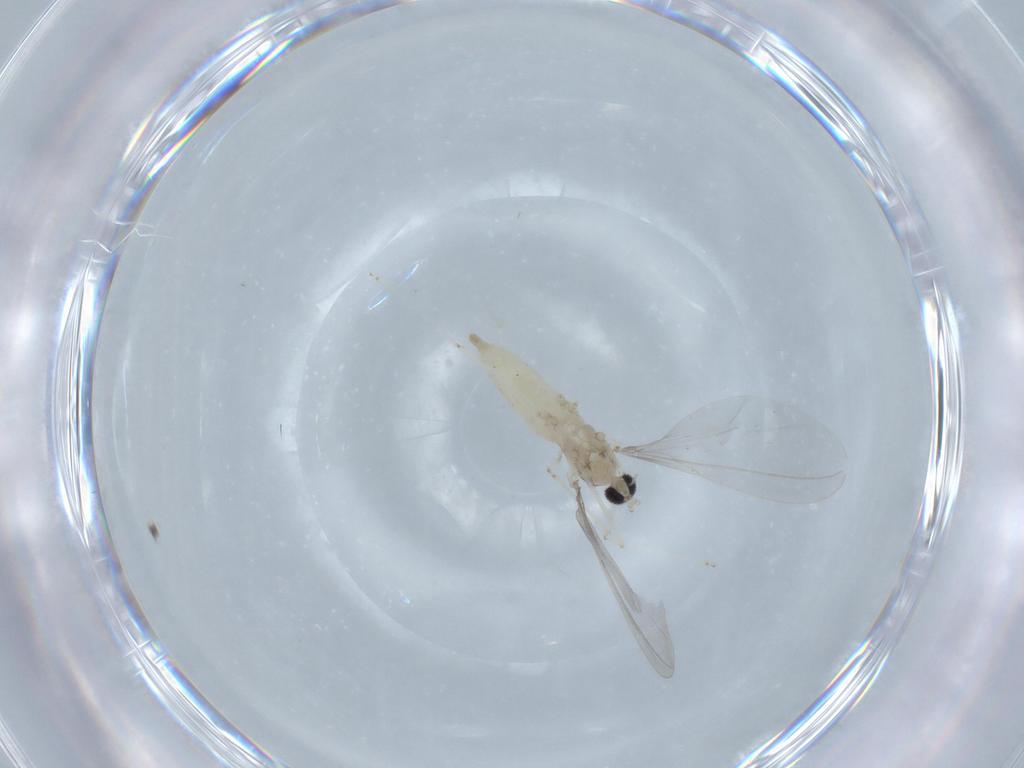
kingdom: Animalia
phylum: Arthropoda
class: Insecta
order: Diptera
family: Cecidomyiidae
